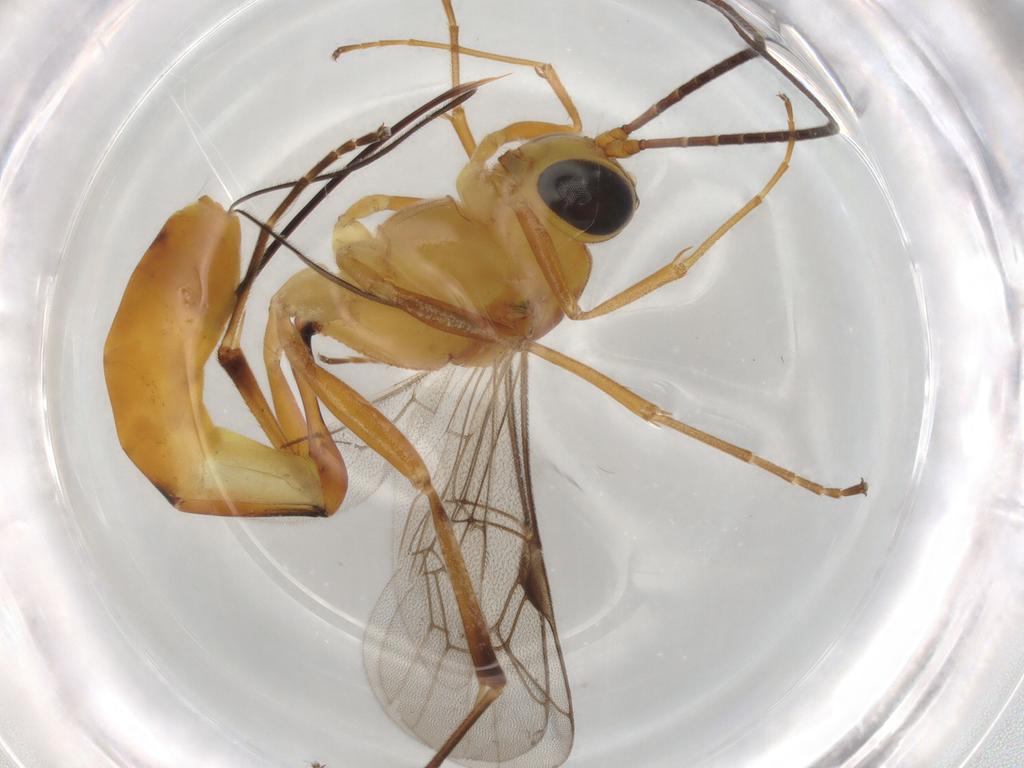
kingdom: Animalia
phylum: Arthropoda
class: Insecta
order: Hymenoptera
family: Ichneumonidae
